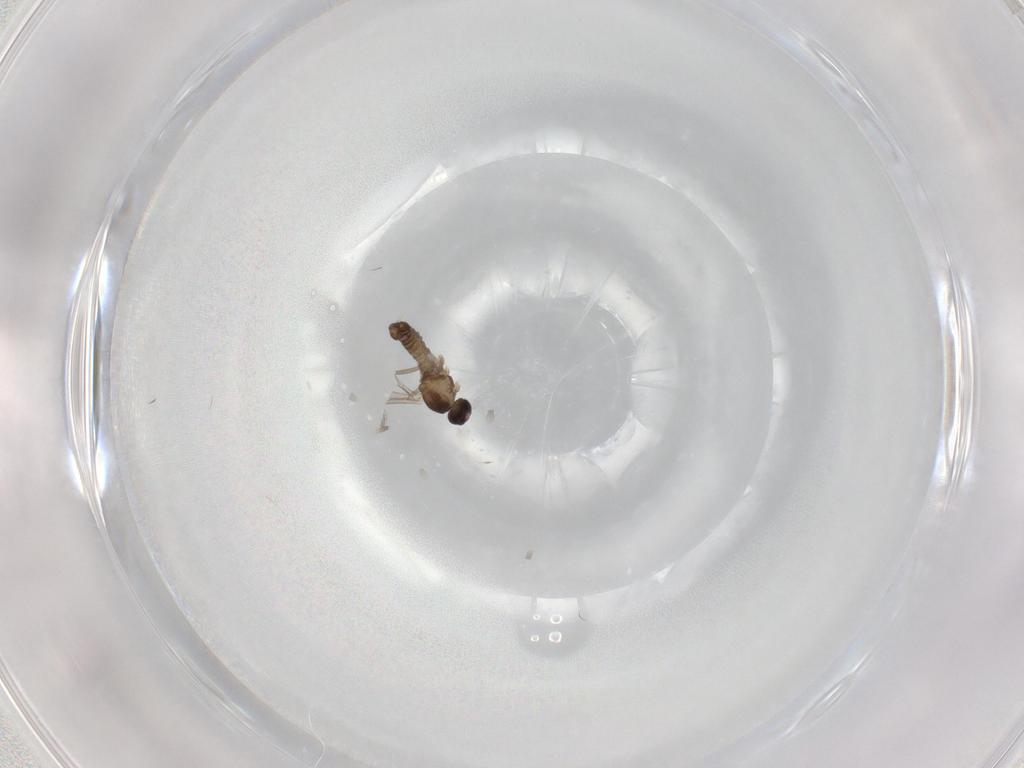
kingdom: Animalia
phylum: Arthropoda
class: Insecta
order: Diptera
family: Cecidomyiidae
